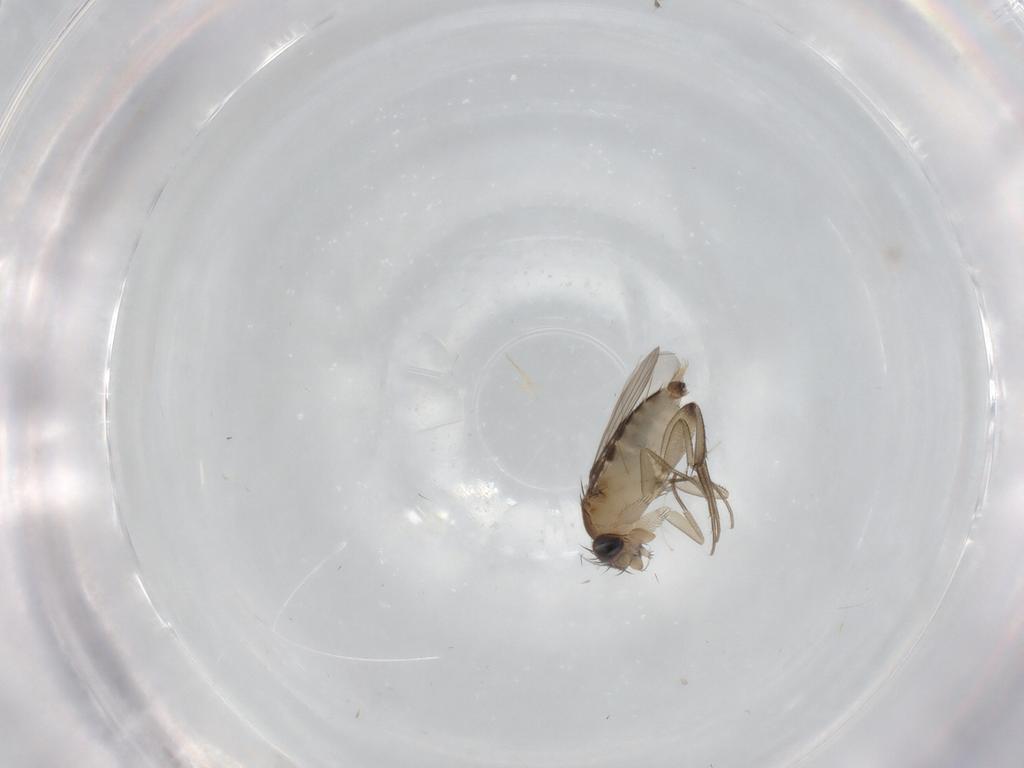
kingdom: Animalia
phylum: Arthropoda
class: Insecta
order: Diptera
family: Phoridae
